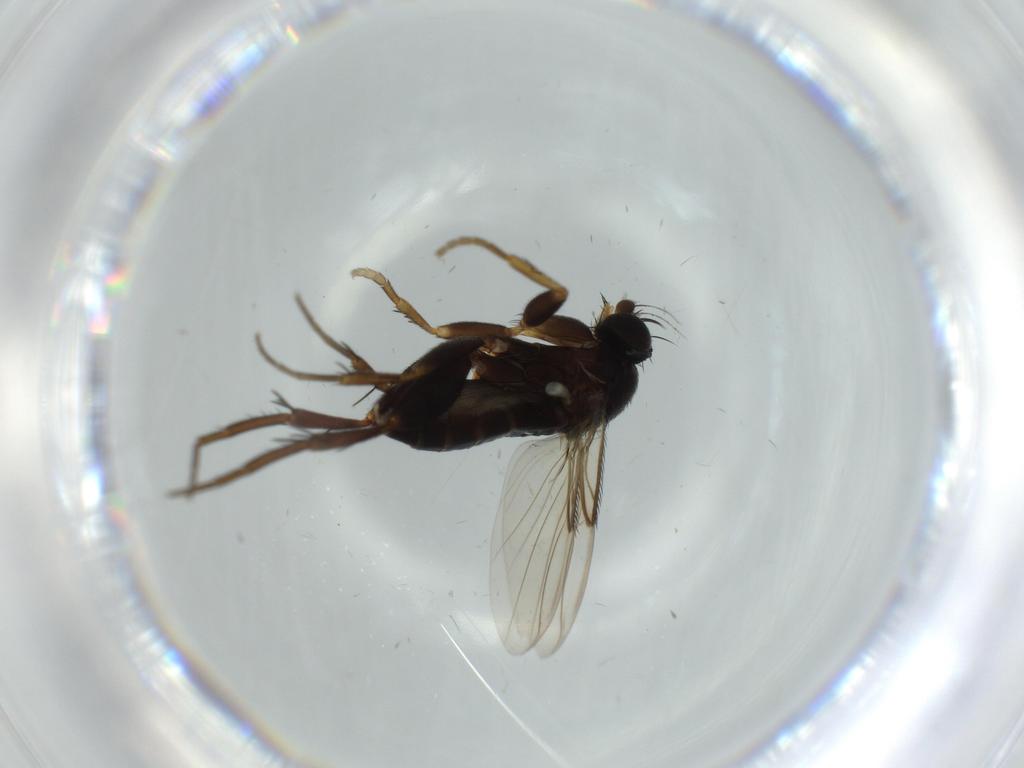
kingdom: Animalia
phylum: Arthropoda
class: Insecta
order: Diptera
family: Phoridae
